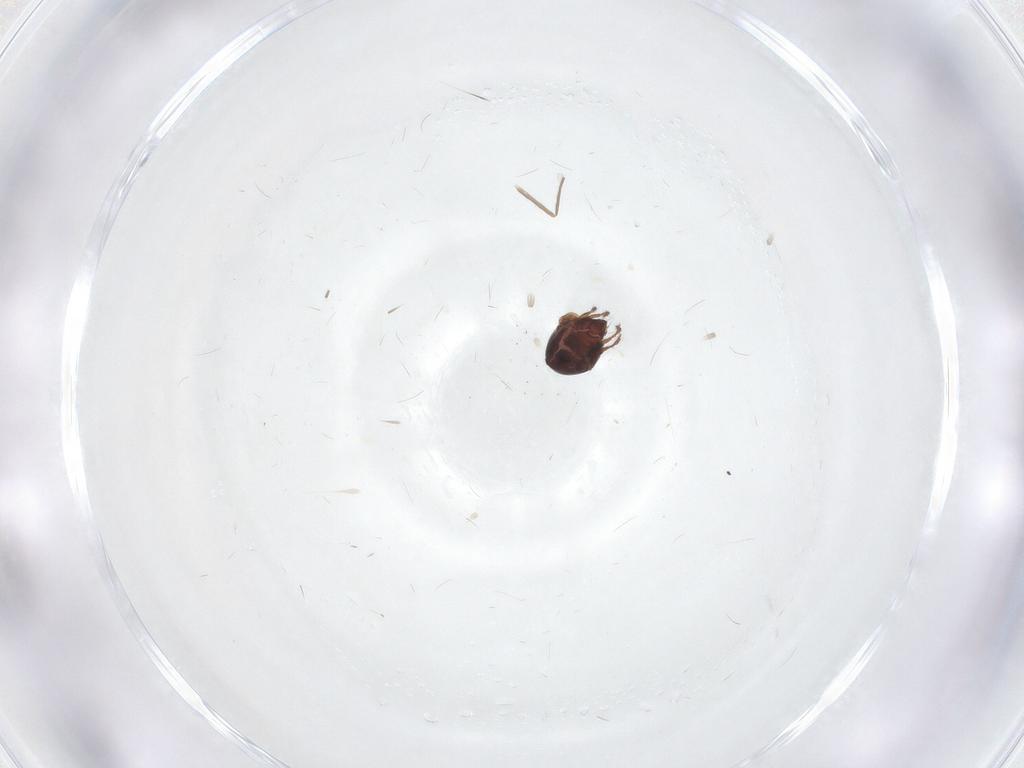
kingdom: Animalia
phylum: Arthropoda
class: Arachnida
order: Sarcoptiformes
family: Ceratozetidae
